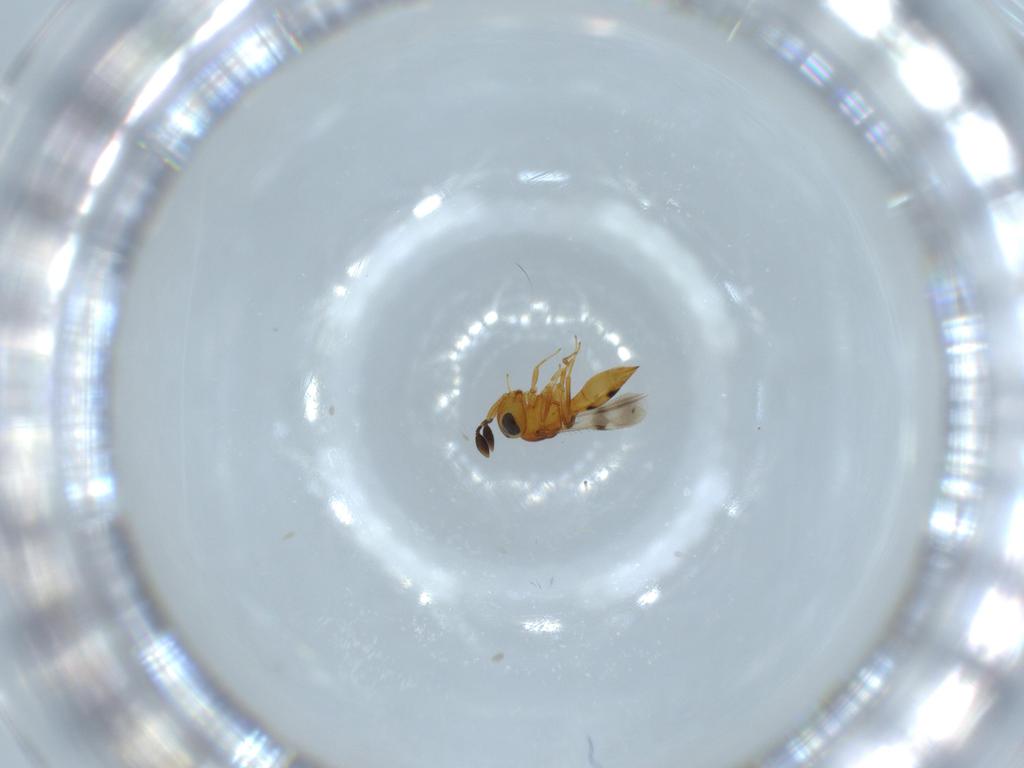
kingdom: Animalia
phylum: Arthropoda
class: Insecta
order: Hymenoptera
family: Scelionidae
